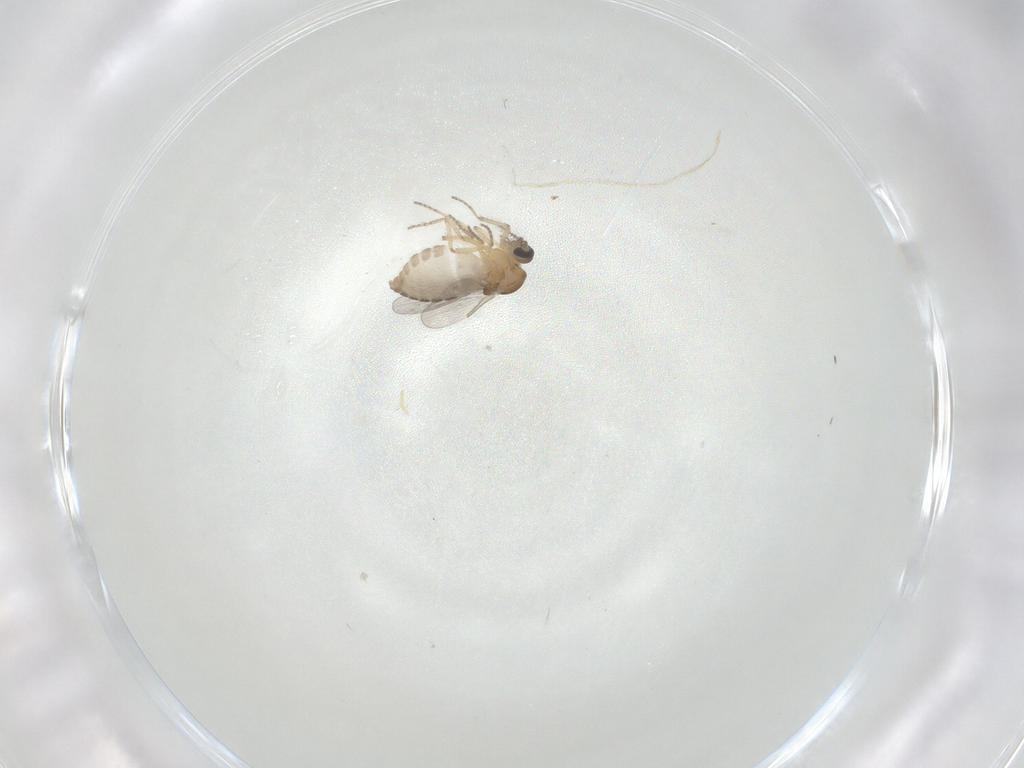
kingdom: Animalia
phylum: Arthropoda
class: Insecta
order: Diptera
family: Ceratopogonidae
